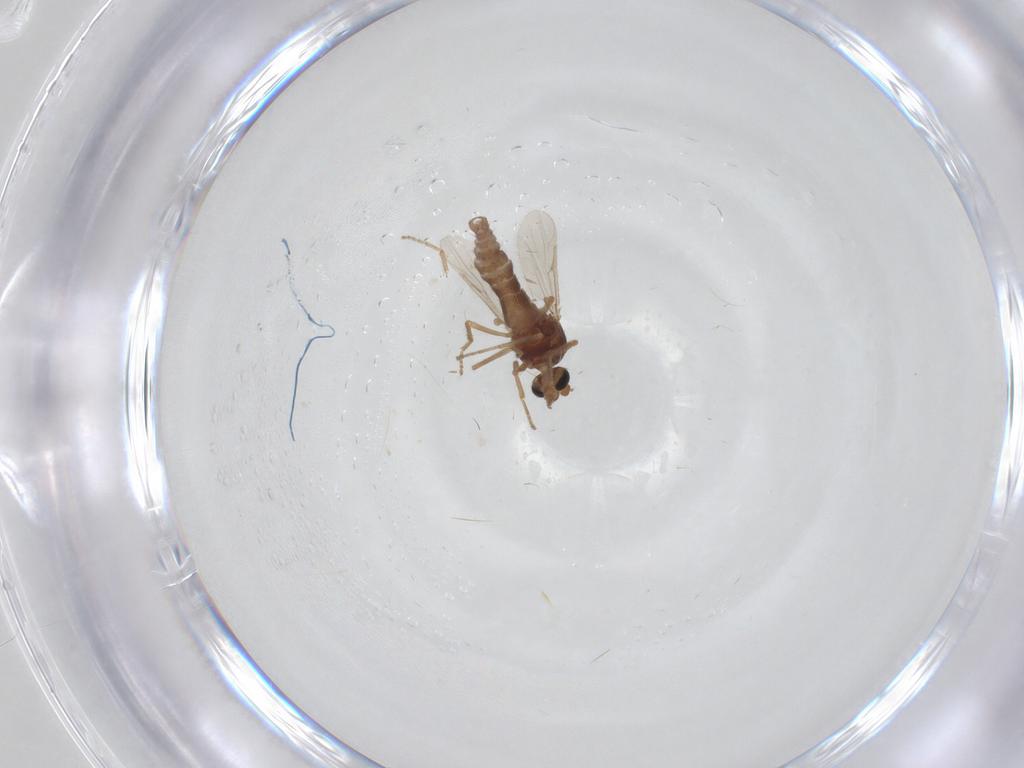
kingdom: Animalia
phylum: Arthropoda
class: Insecta
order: Diptera
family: Ceratopogonidae
